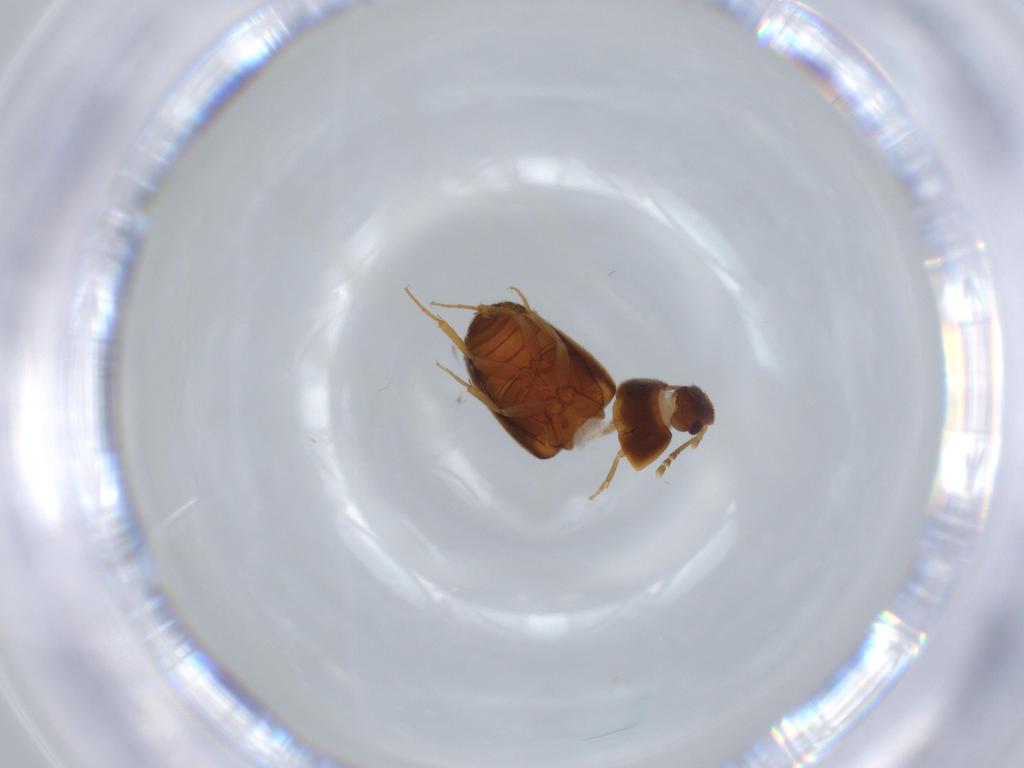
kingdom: Animalia
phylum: Arthropoda
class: Insecta
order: Coleoptera
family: Mycetophagidae
